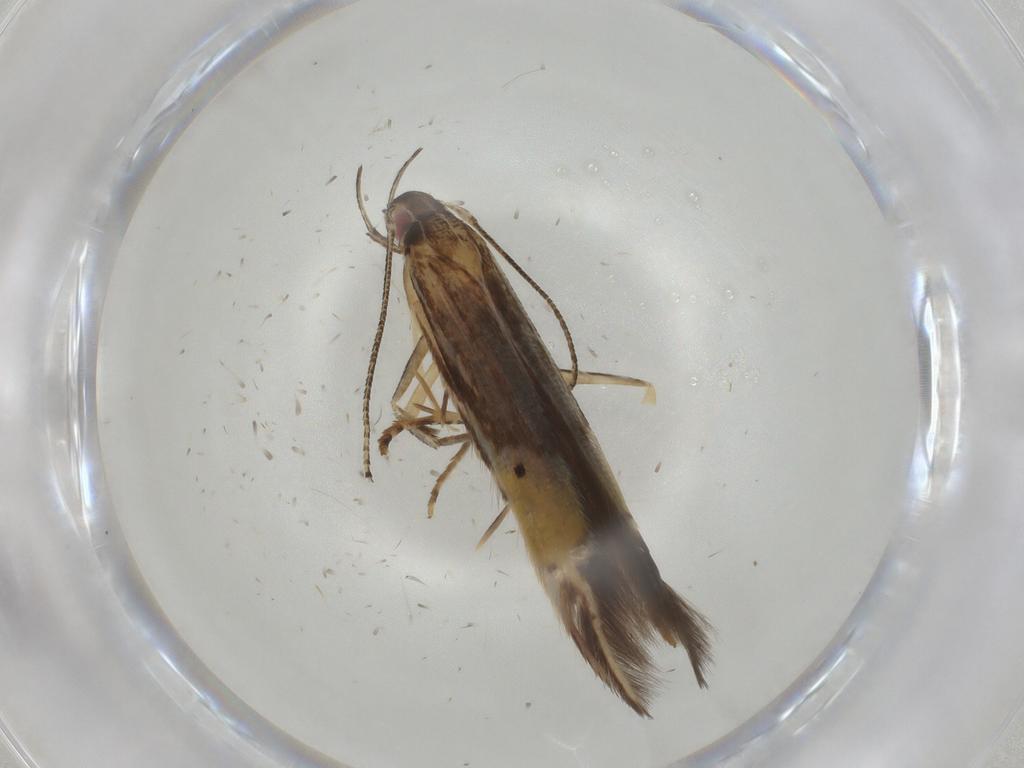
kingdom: Animalia
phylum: Arthropoda
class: Insecta
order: Lepidoptera
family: Cosmopterigidae
